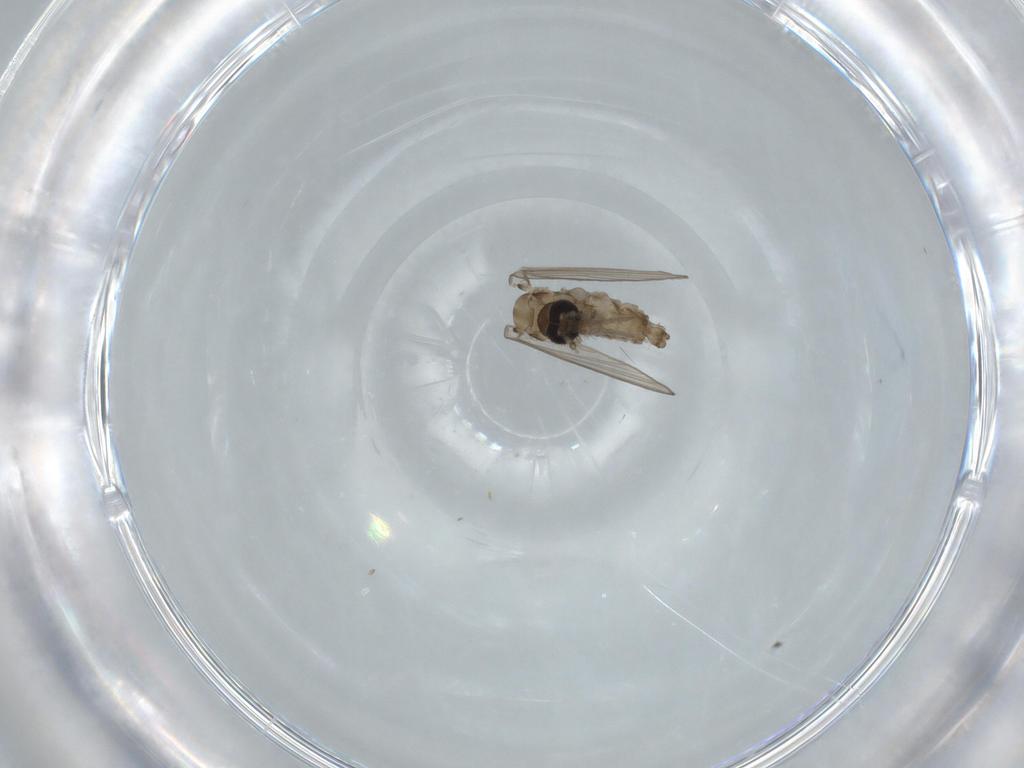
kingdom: Animalia
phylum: Arthropoda
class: Insecta
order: Diptera
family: Psychodidae
